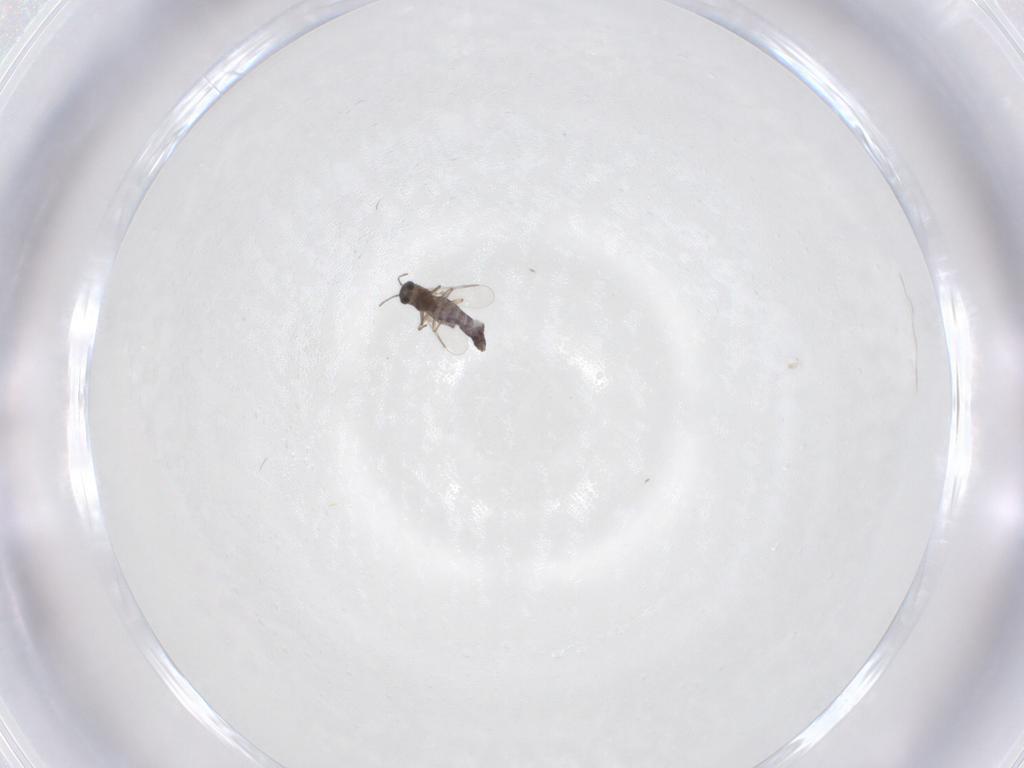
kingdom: Animalia
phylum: Arthropoda
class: Insecta
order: Diptera
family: Chironomidae
